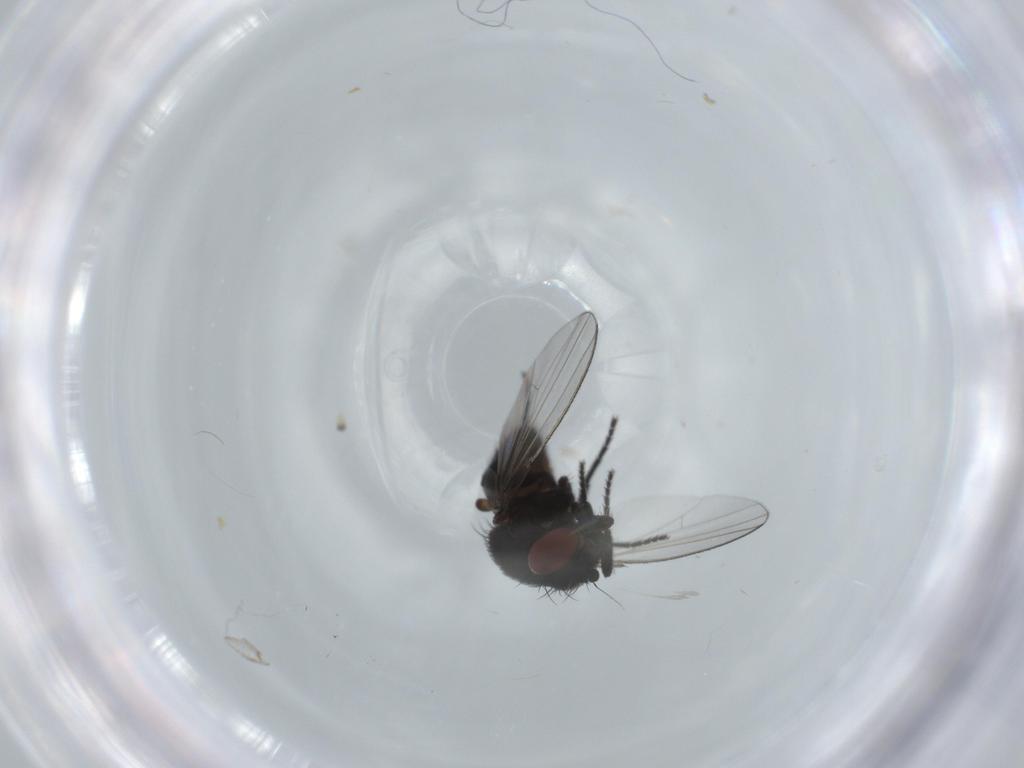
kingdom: Animalia
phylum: Arthropoda
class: Insecta
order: Diptera
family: Milichiidae
